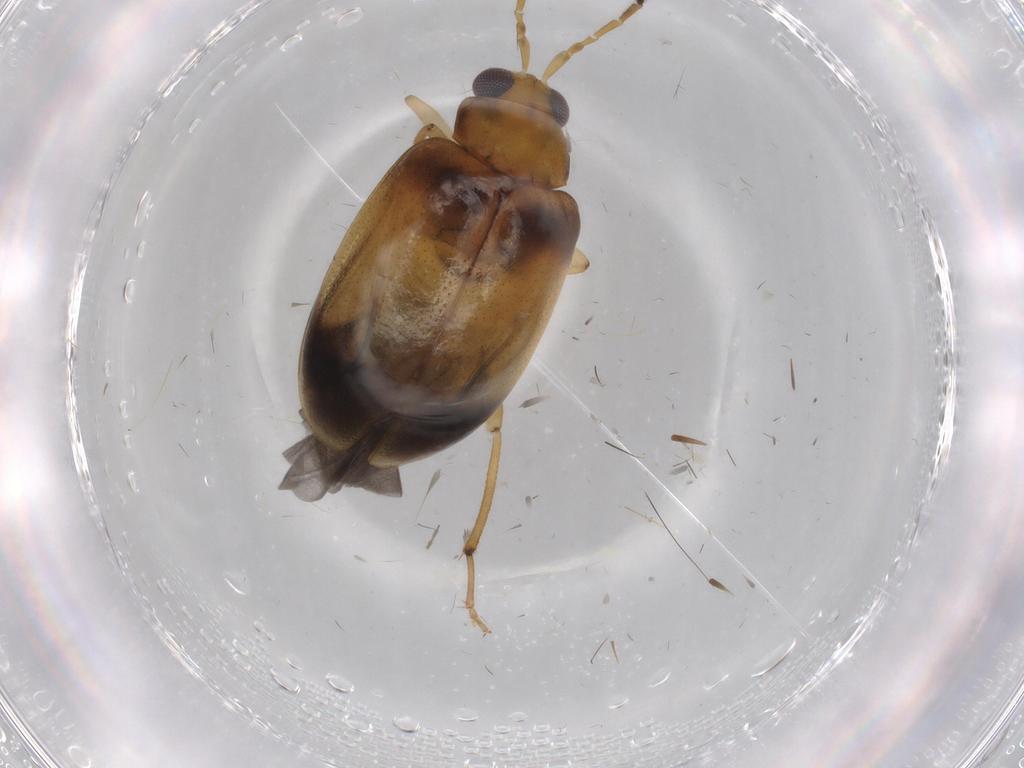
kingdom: Animalia
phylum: Arthropoda
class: Insecta
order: Coleoptera
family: Chrysomelidae
